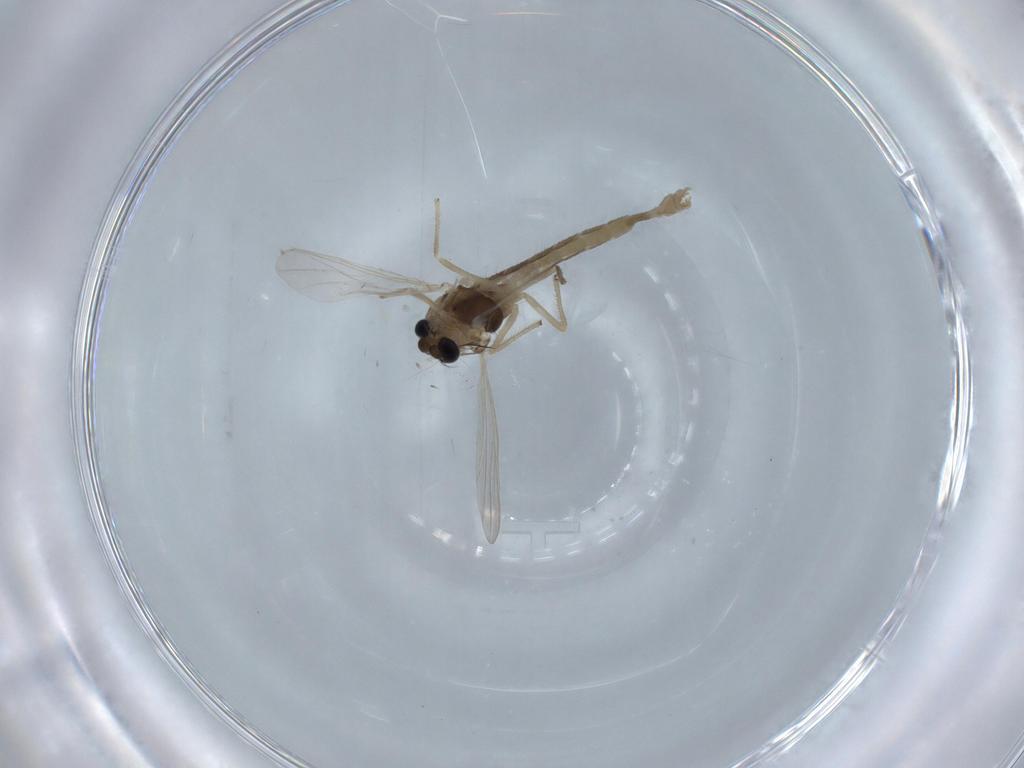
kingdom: Animalia
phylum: Arthropoda
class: Insecta
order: Diptera
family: Chironomidae
